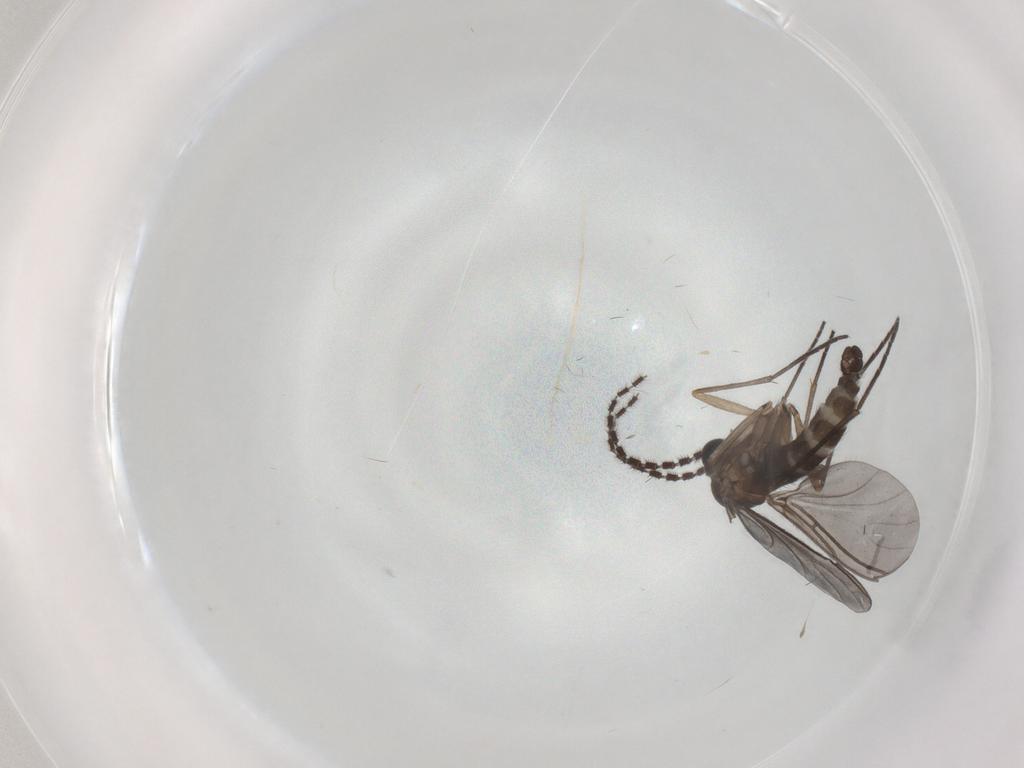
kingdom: Animalia
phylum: Arthropoda
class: Insecta
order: Diptera
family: Sciaridae
